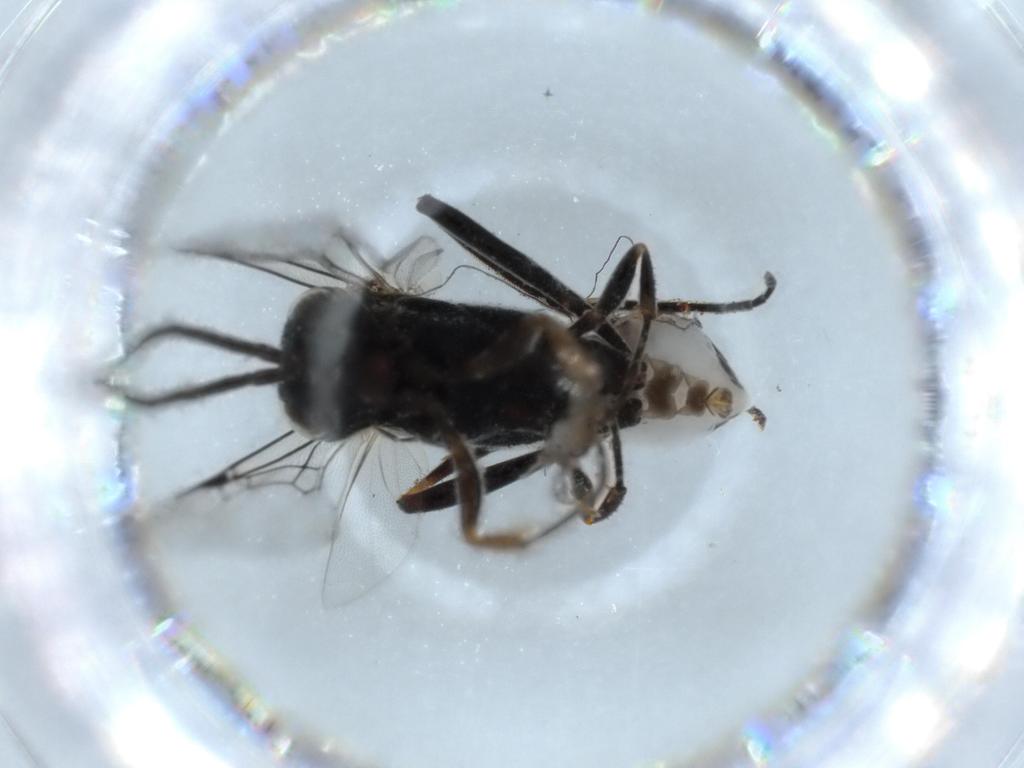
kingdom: Animalia
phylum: Arthropoda
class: Insecta
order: Hymenoptera
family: Evaniidae
